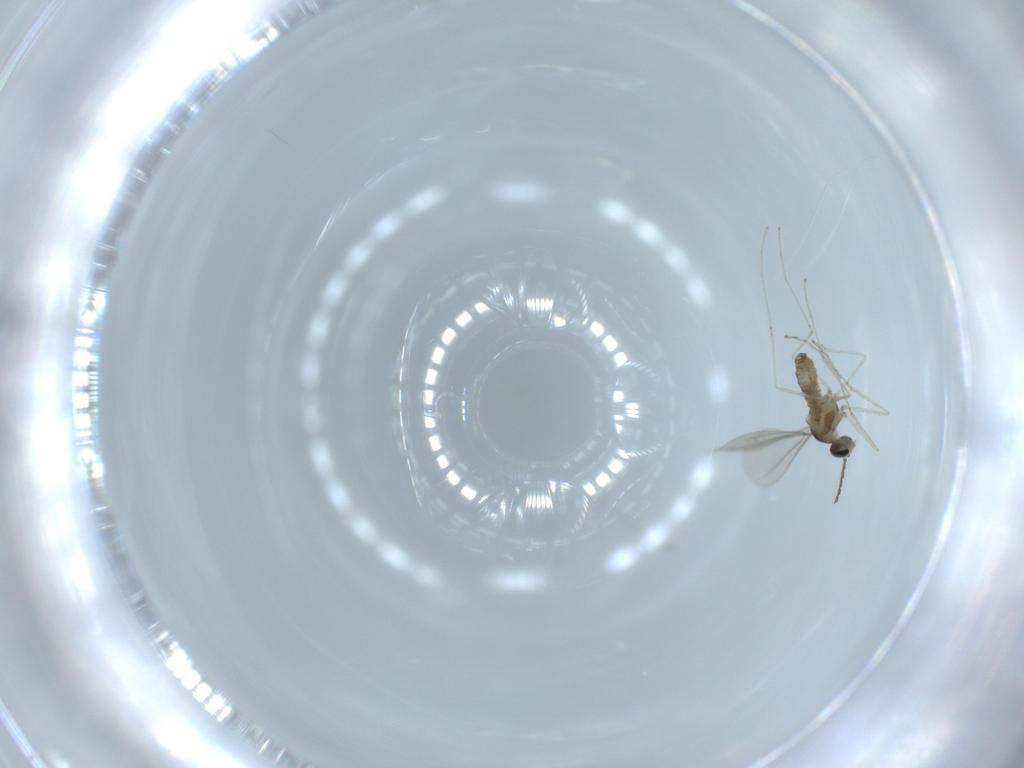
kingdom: Animalia
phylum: Arthropoda
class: Insecta
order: Diptera
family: Cecidomyiidae
